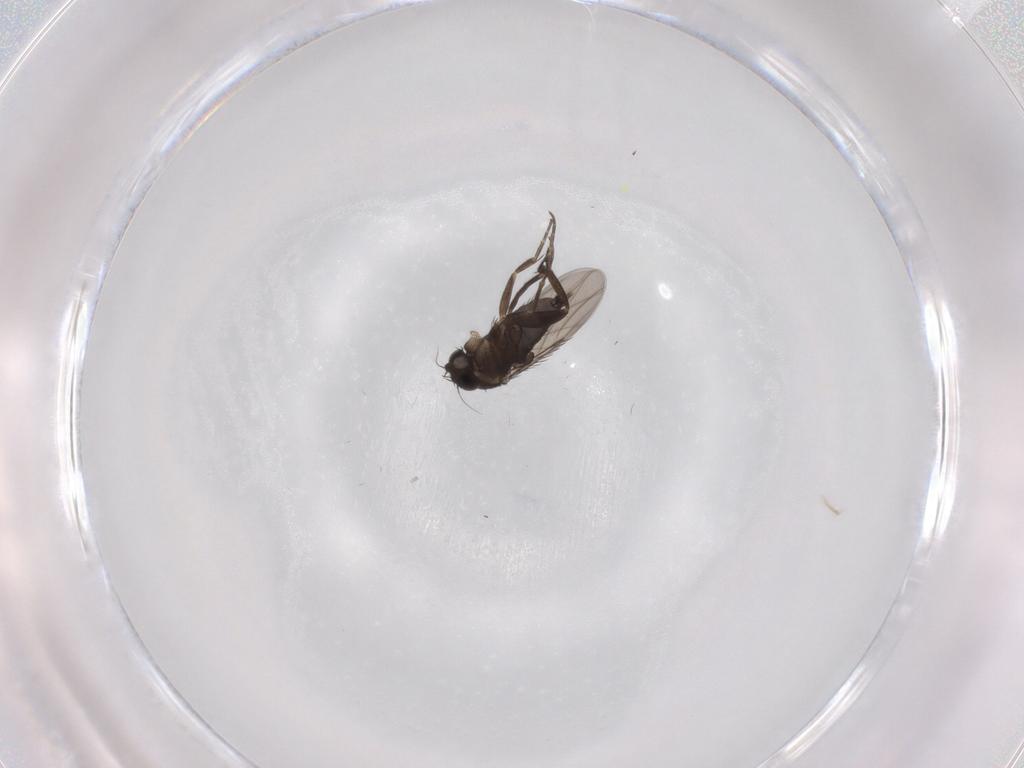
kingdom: Animalia
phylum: Arthropoda
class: Insecta
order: Diptera
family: Phoridae
